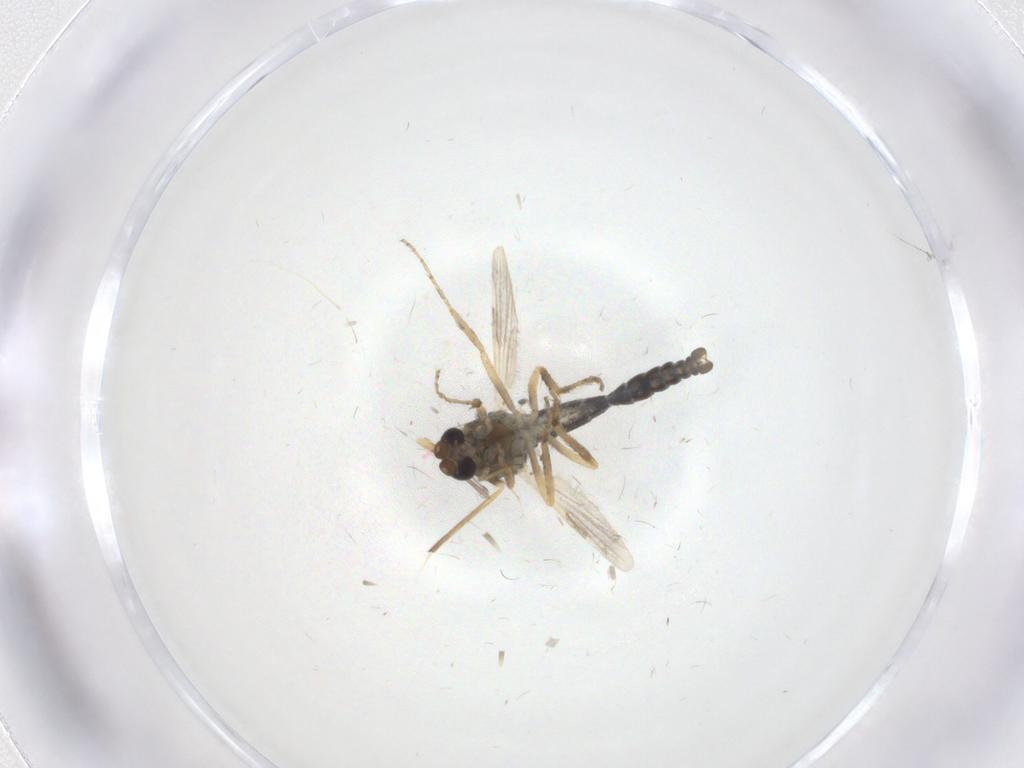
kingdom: Animalia
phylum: Arthropoda
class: Insecta
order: Diptera
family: Ceratopogonidae
